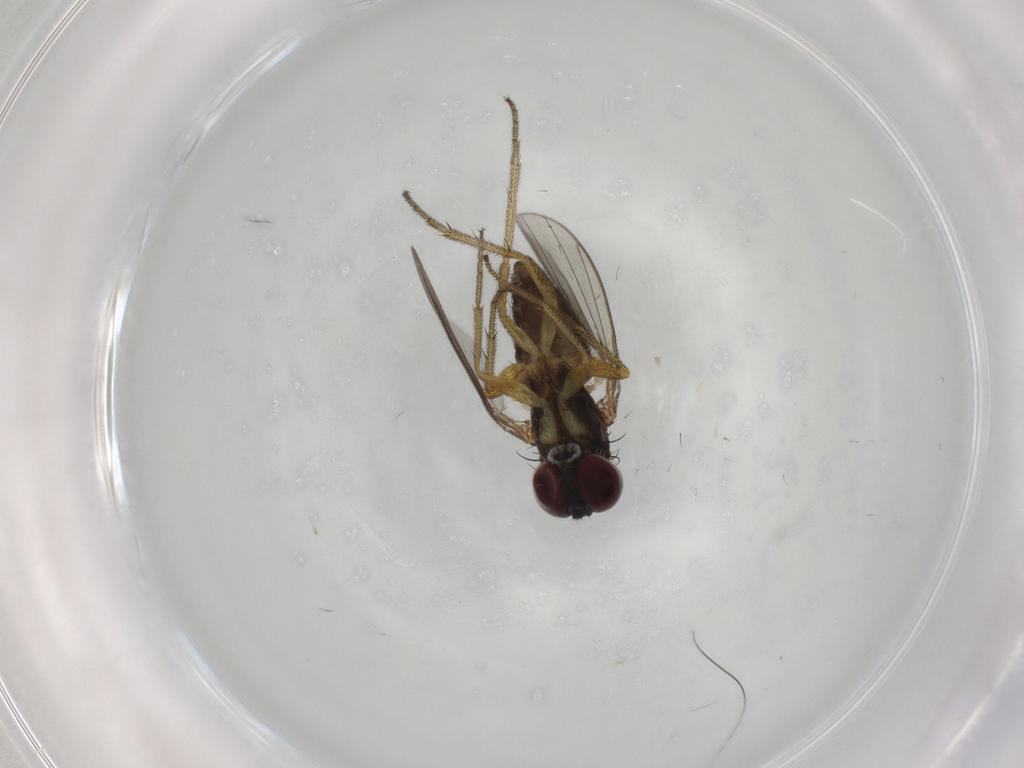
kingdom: Animalia
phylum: Arthropoda
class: Insecta
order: Diptera
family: Dolichopodidae
